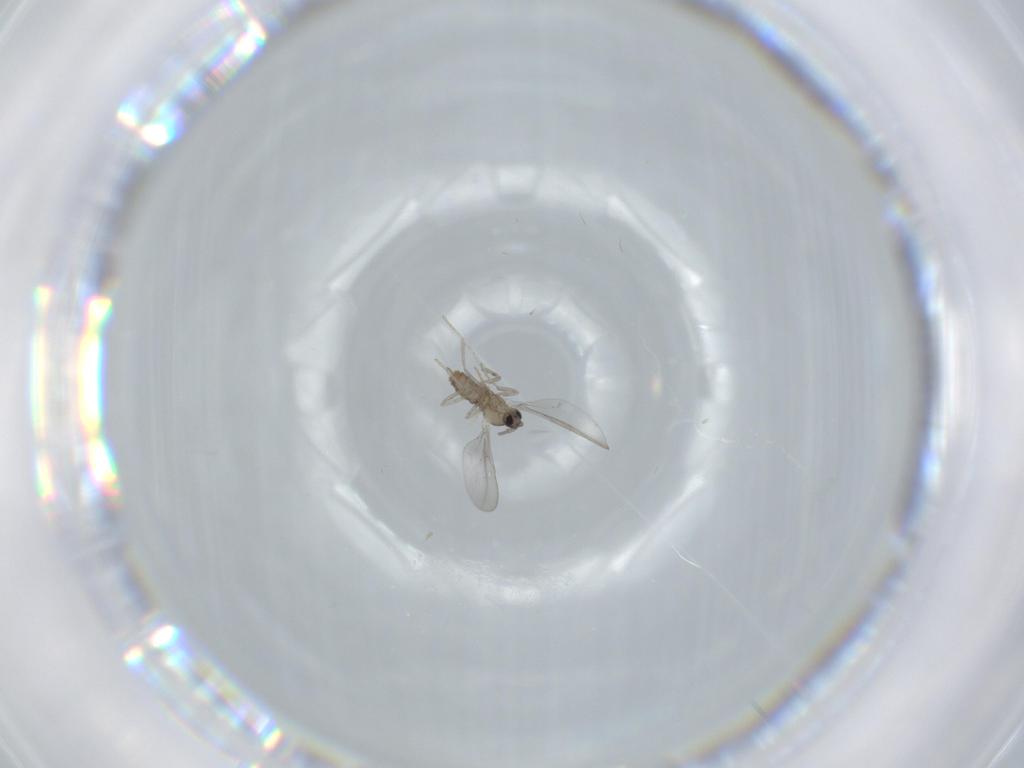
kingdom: Animalia
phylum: Arthropoda
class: Insecta
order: Diptera
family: Cecidomyiidae
